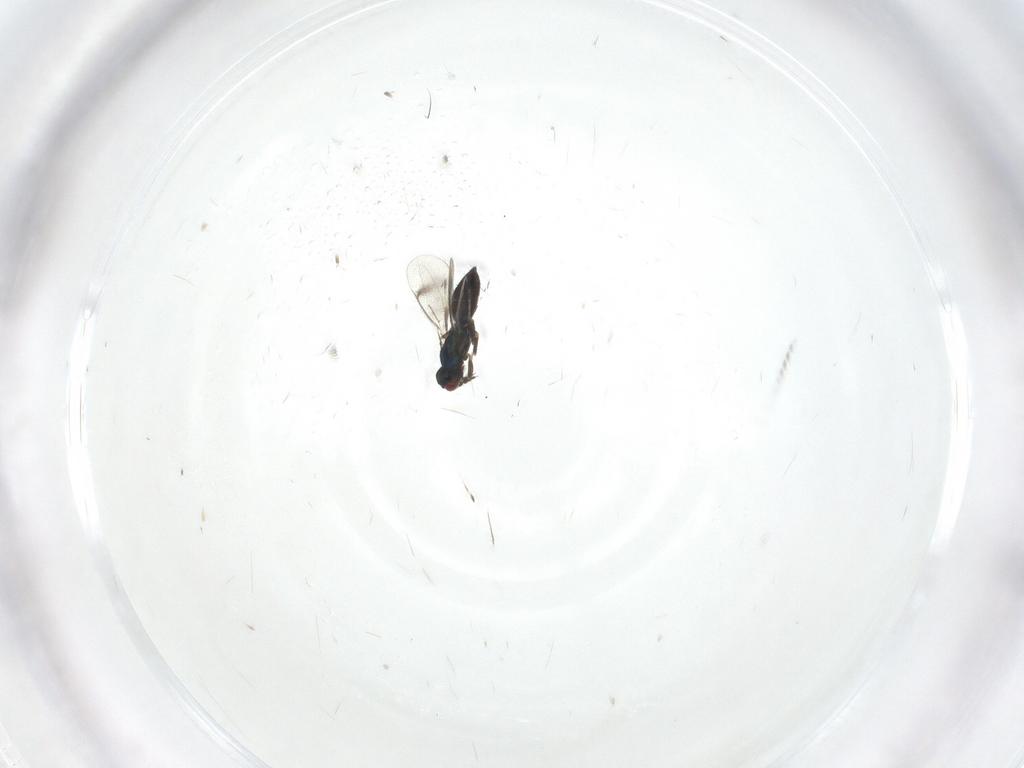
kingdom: Animalia
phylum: Arthropoda
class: Insecta
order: Hymenoptera
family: Eulophidae
